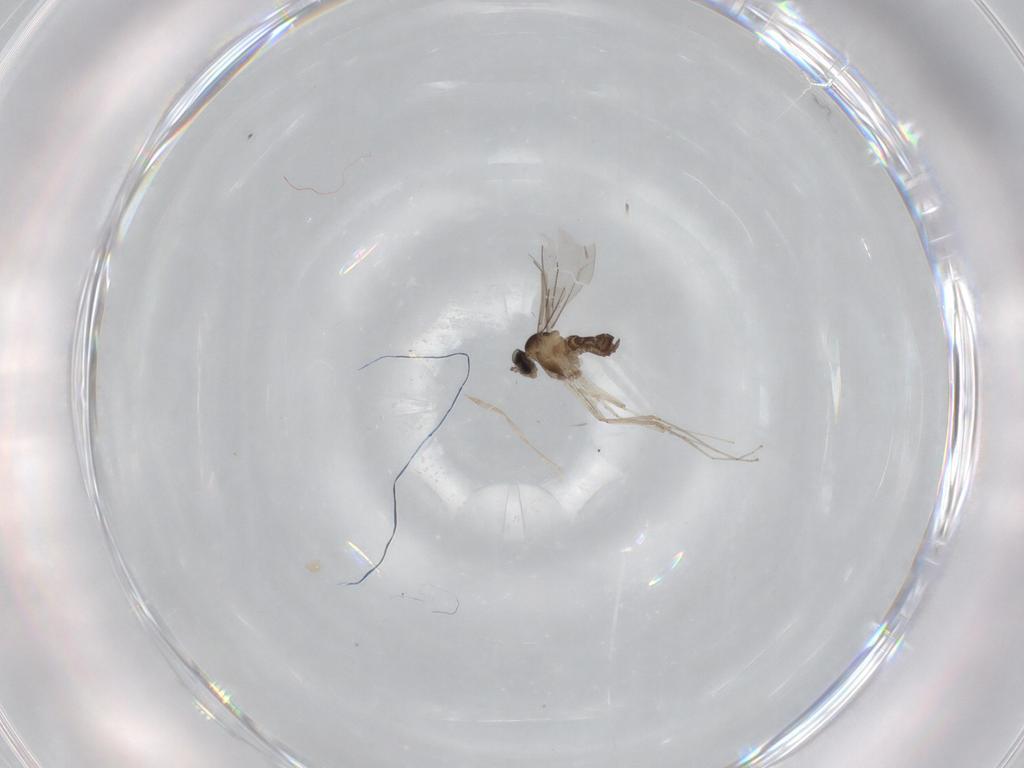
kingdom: Animalia
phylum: Arthropoda
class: Insecta
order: Diptera
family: Cecidomyiidae
